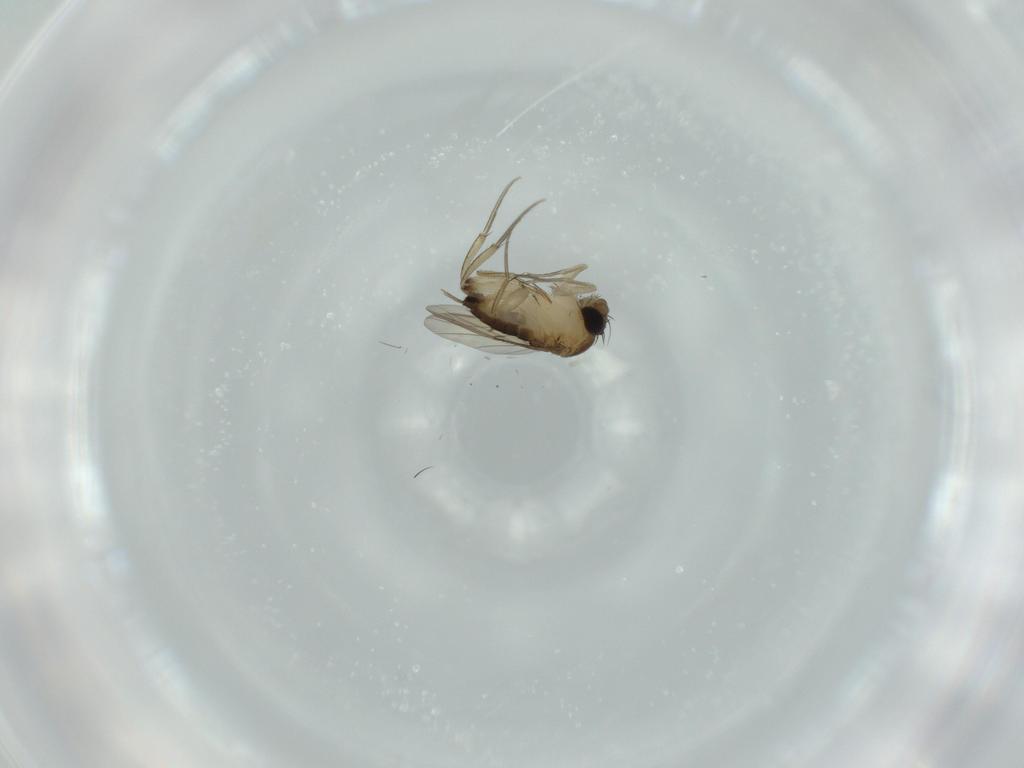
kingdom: Animalia
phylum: Arthropoda
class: Insecta
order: Diptera
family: Phoridae
